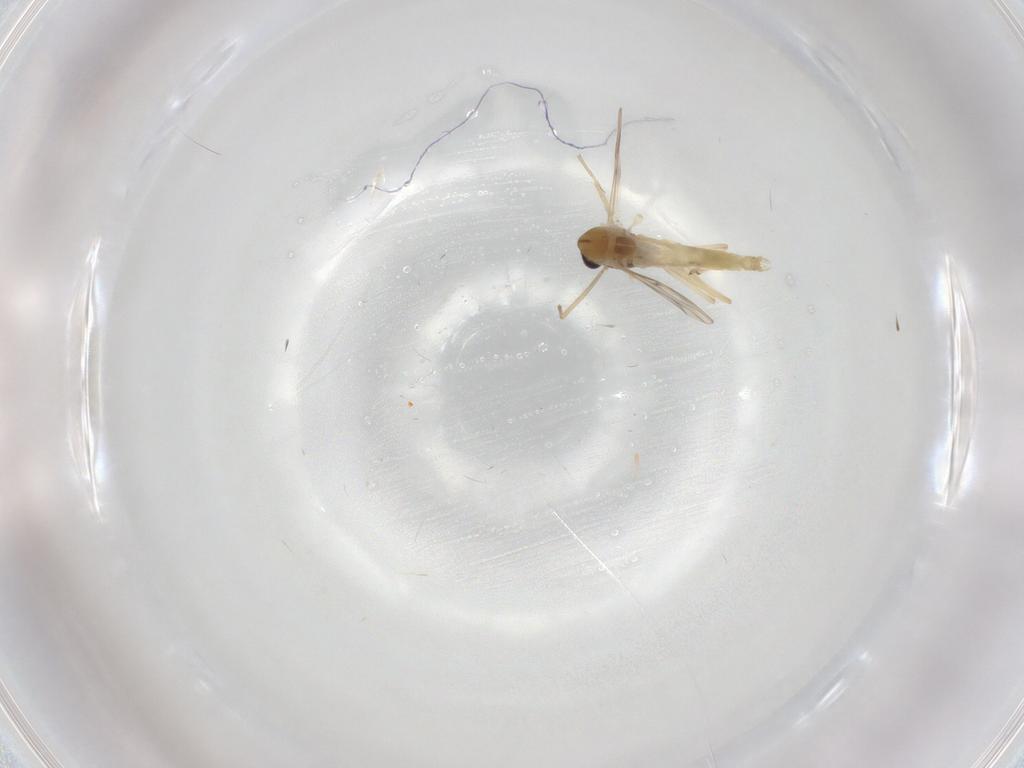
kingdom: Animalia
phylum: Arthropoda
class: Insecta
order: Diptera
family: Chironomidae
